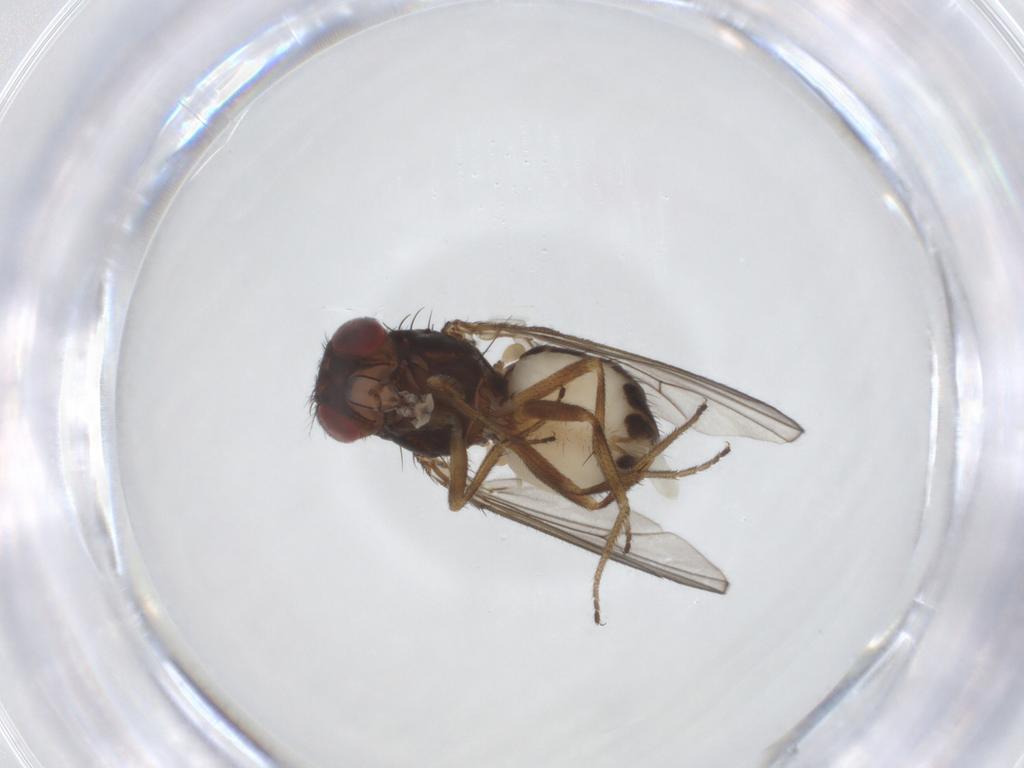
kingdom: Animalia
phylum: Arthropoda
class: Insecta
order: Diptera
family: Drosophilidae
